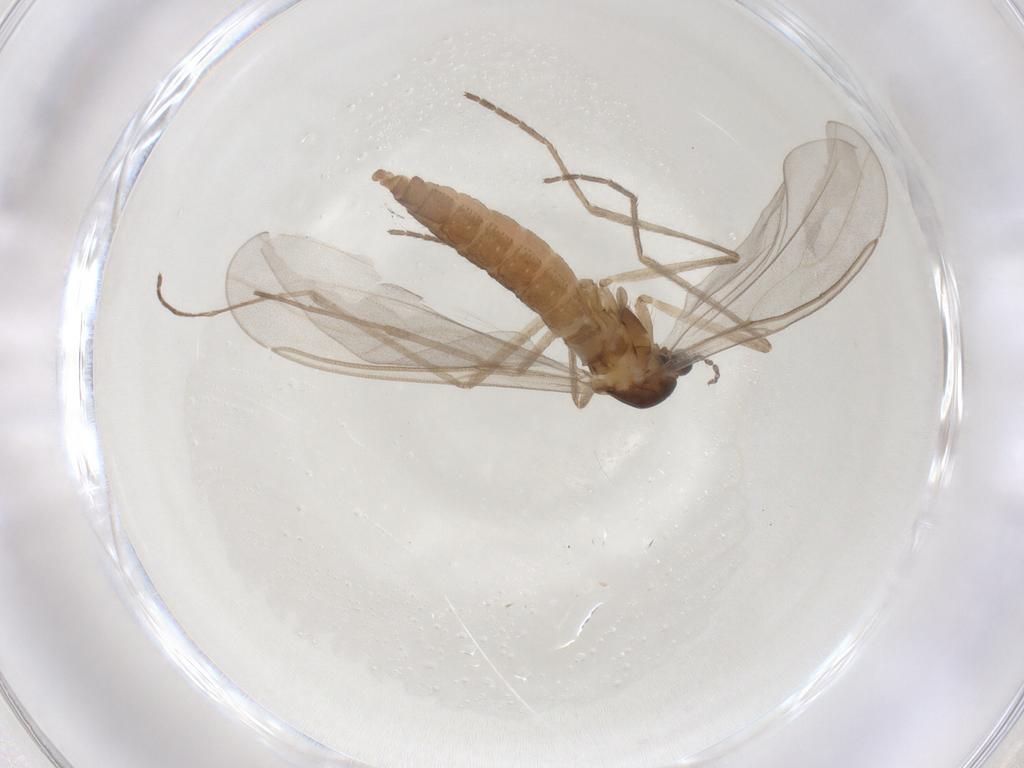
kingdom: Animalia
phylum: Arthropoda
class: Insecta
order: Diptera
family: Cecidomyiidae
